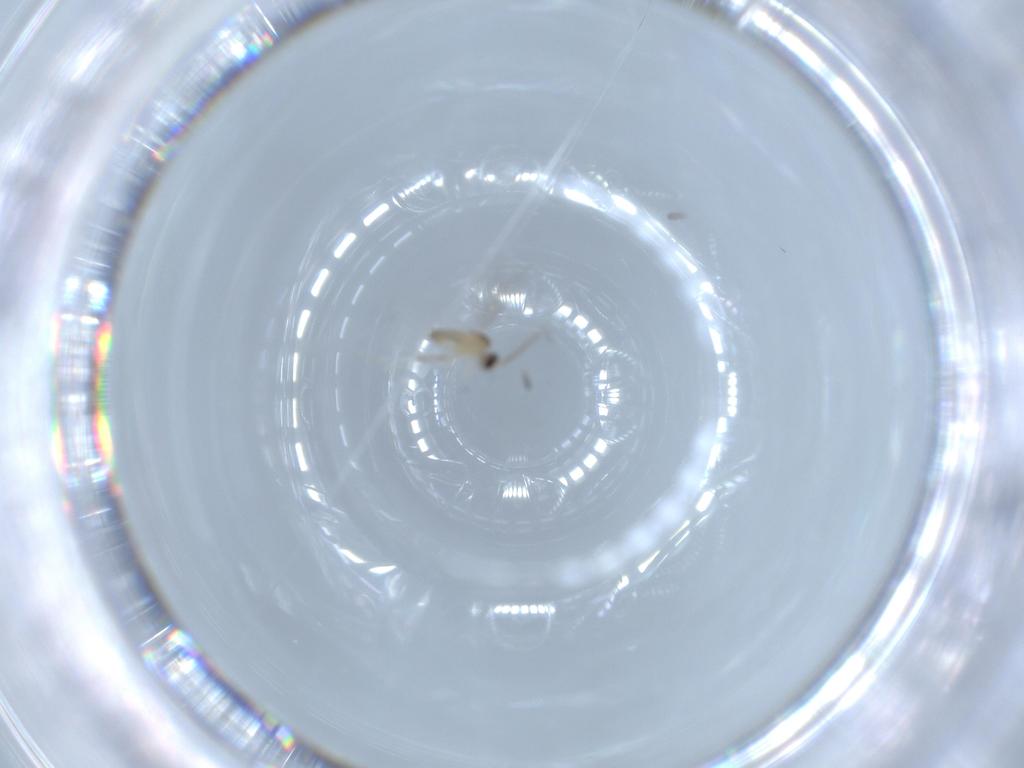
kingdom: Animalia
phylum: Arthropoda
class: Insecta
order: Diptera
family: Cecidomyiidae
